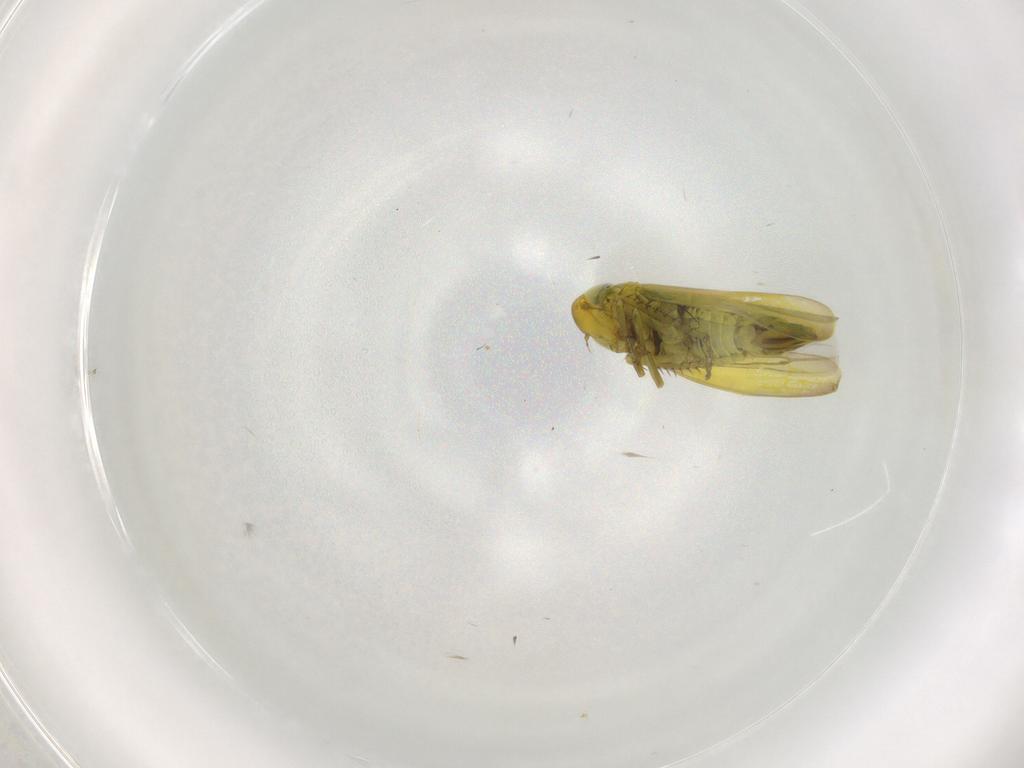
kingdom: Animalia
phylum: Arthropoda
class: Insecta
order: Hemiptera
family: Cicadellidae
